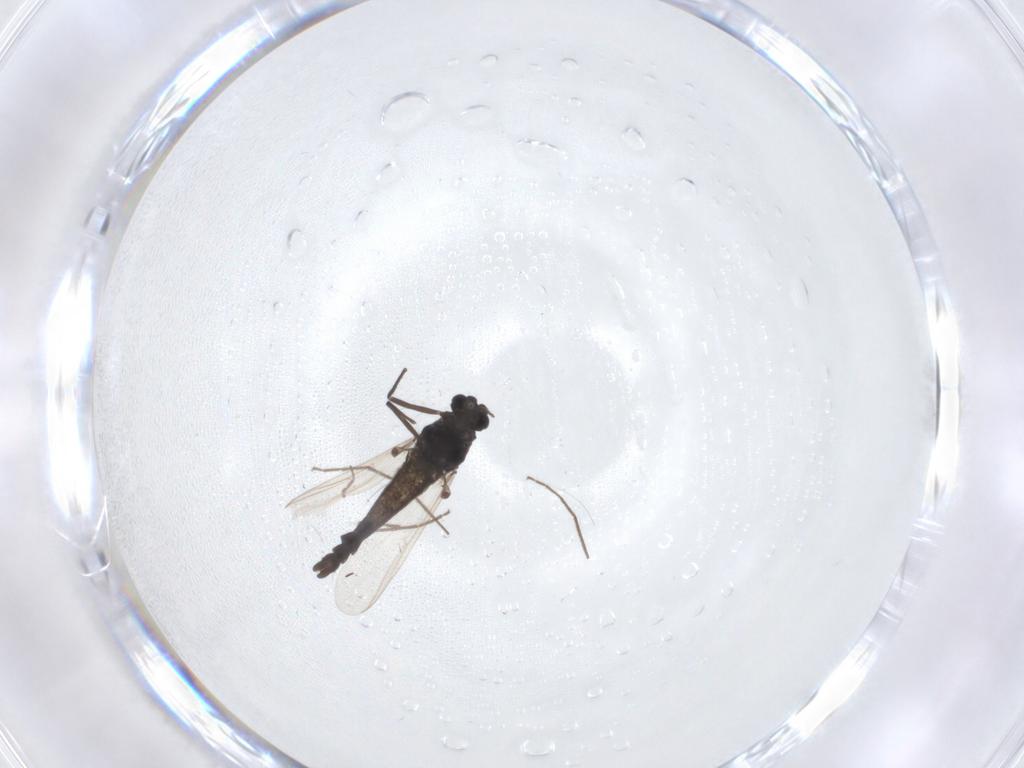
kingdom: Animalia
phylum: Arthropoda
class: Insecta
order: Diptera
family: Chironomidae
